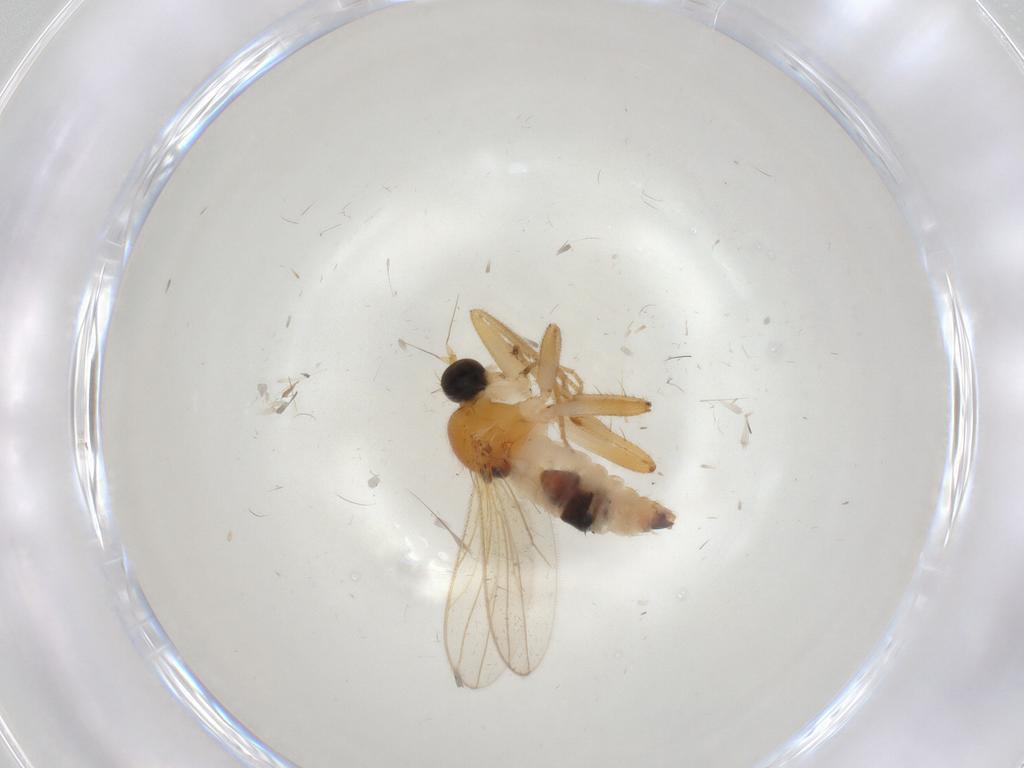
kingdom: Animalia
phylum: Arthropoda
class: Insecta
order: Diptera
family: Hybotidae
